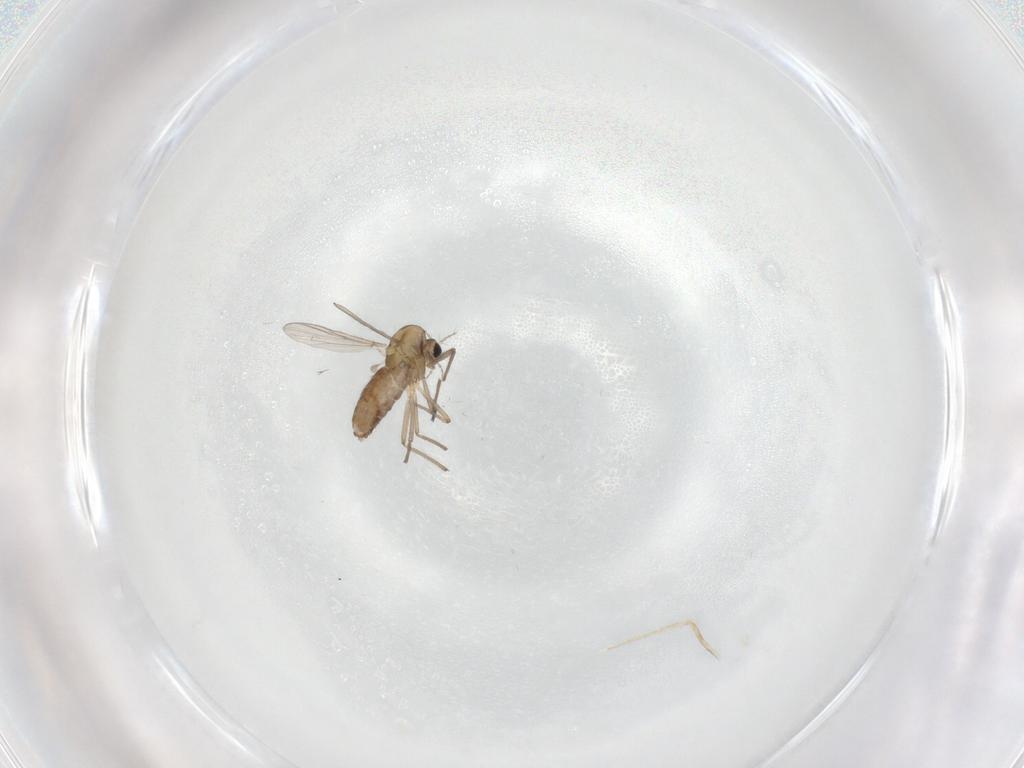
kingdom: Animalia
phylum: Arthropoda
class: Insecta
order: Diptera
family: Chironomidae
